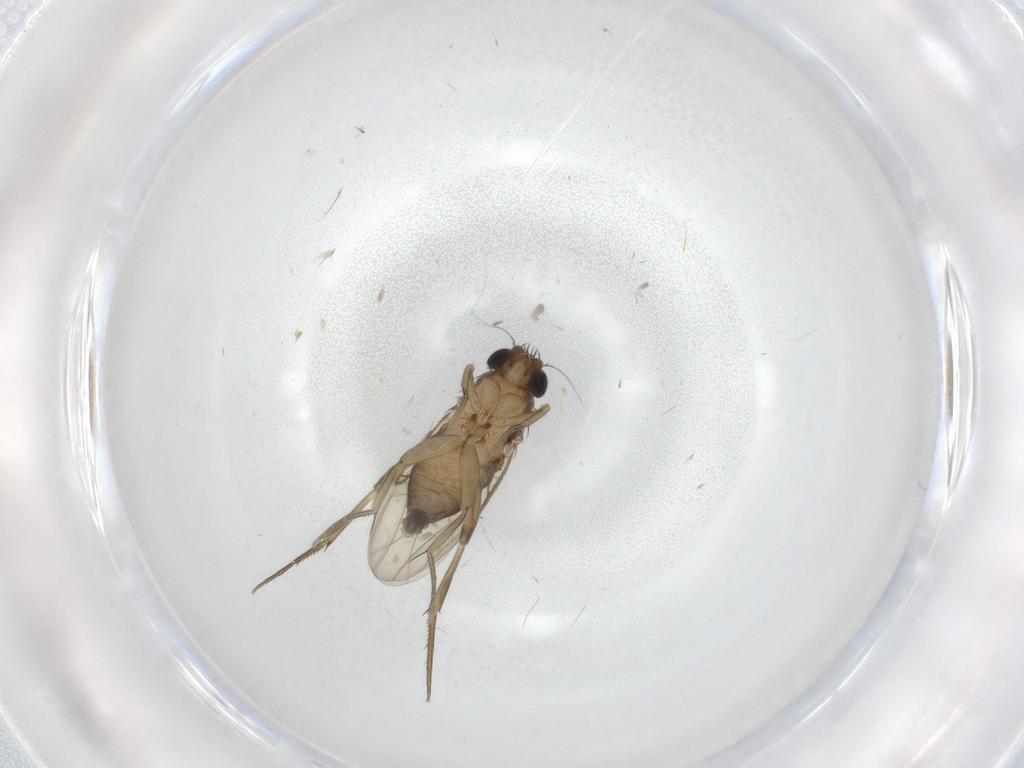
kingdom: Animalia
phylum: Arthropoda
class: Insecta
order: Diptera
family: Phoridae
